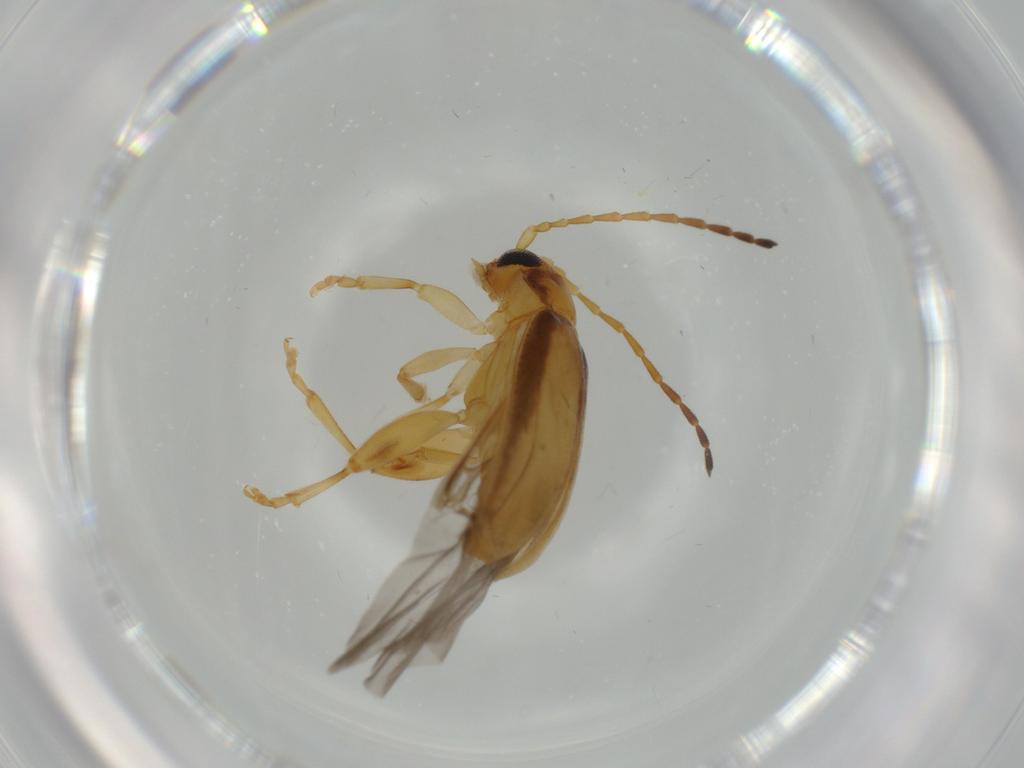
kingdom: Animalia
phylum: Arthropoda
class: Insecta
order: Coleoptera
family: Chrysomelidae
